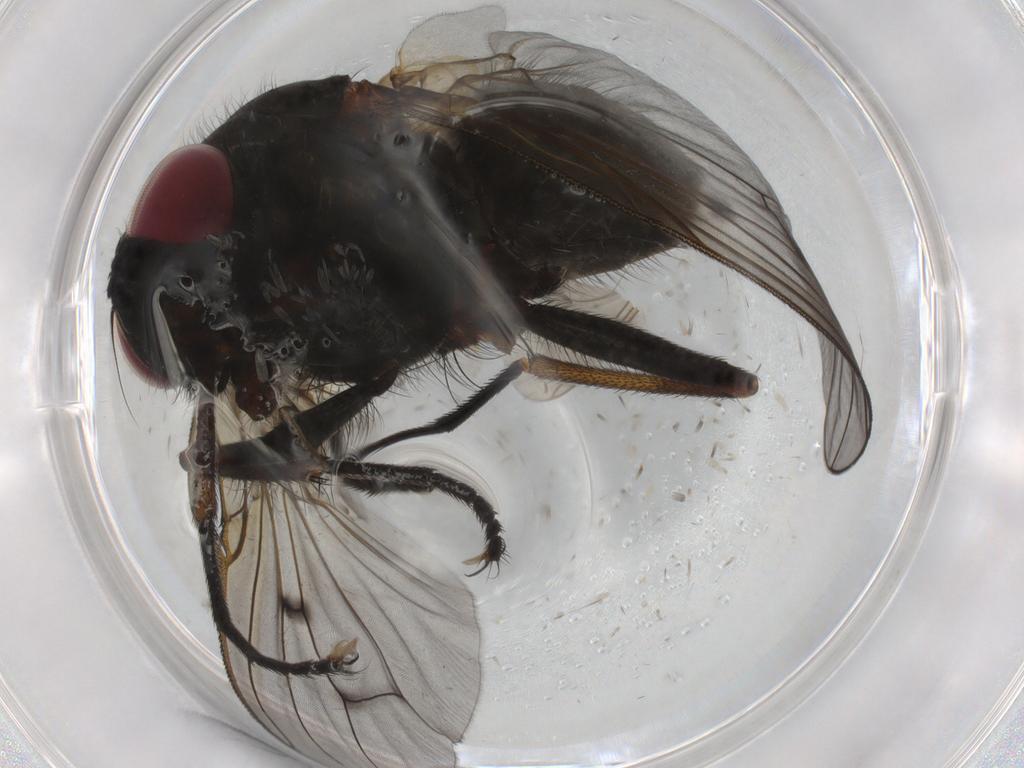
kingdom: Animalia
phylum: Arthropoda
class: Insecta
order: Diptera
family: Muscidae
